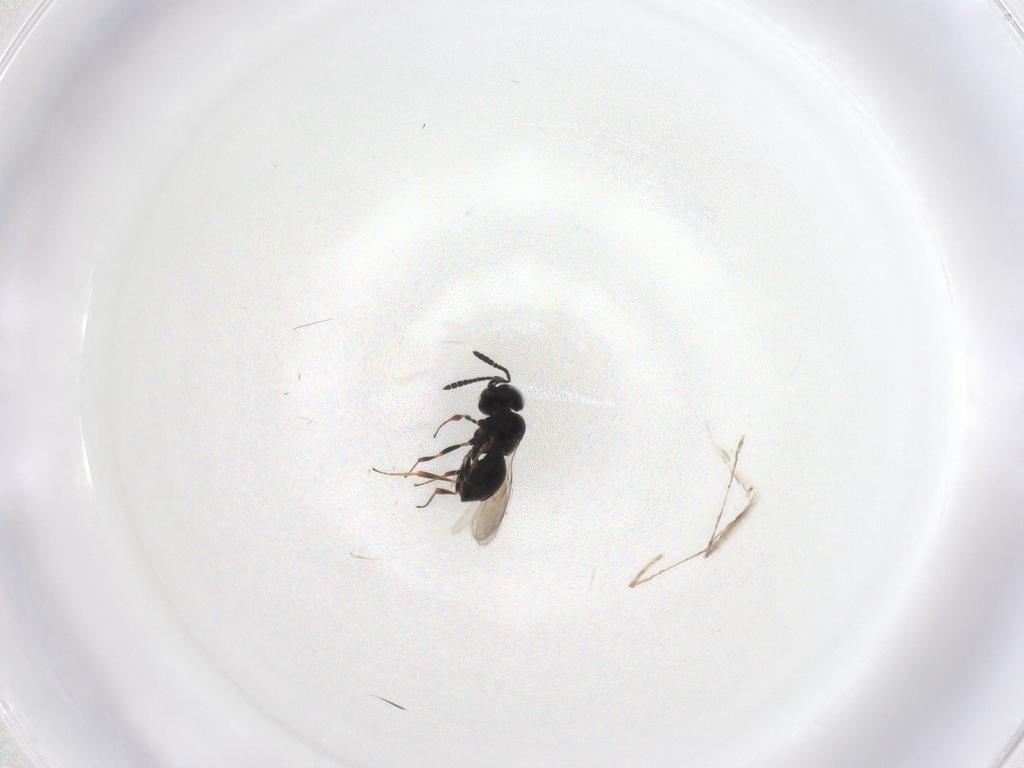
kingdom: Animalia
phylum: Arthropoda
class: Insecta
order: Hymenoptera
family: Scelionidae
